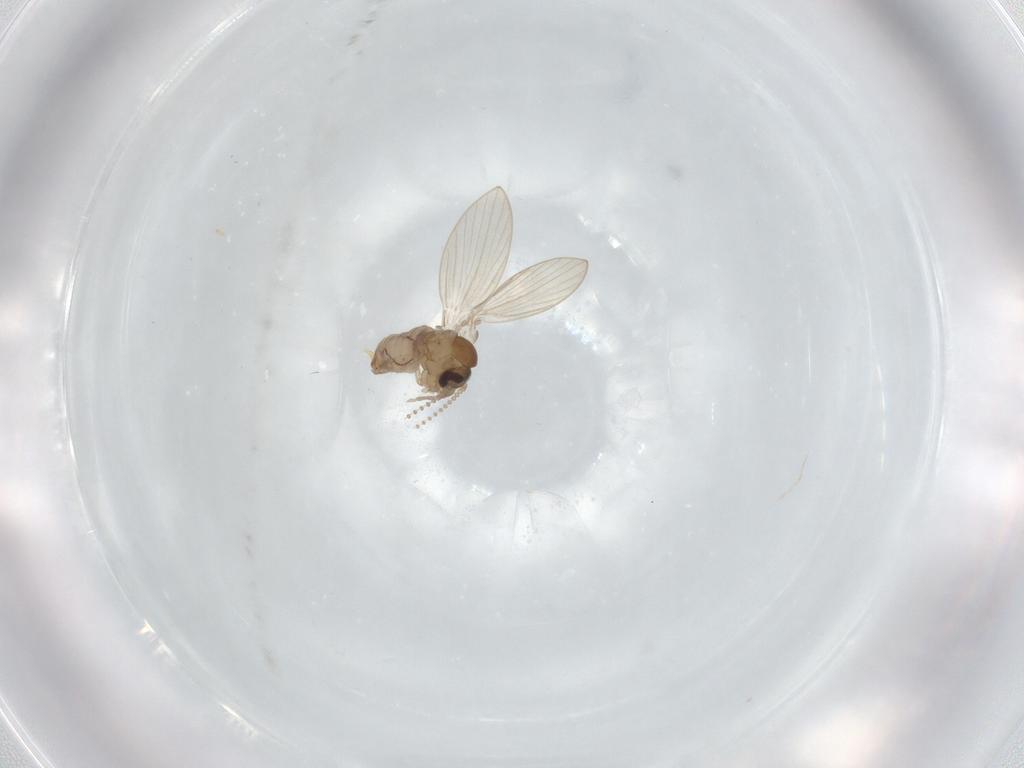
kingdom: Animalia
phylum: Arthropoda
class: Insecta
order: Diptera
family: Psychodidae
